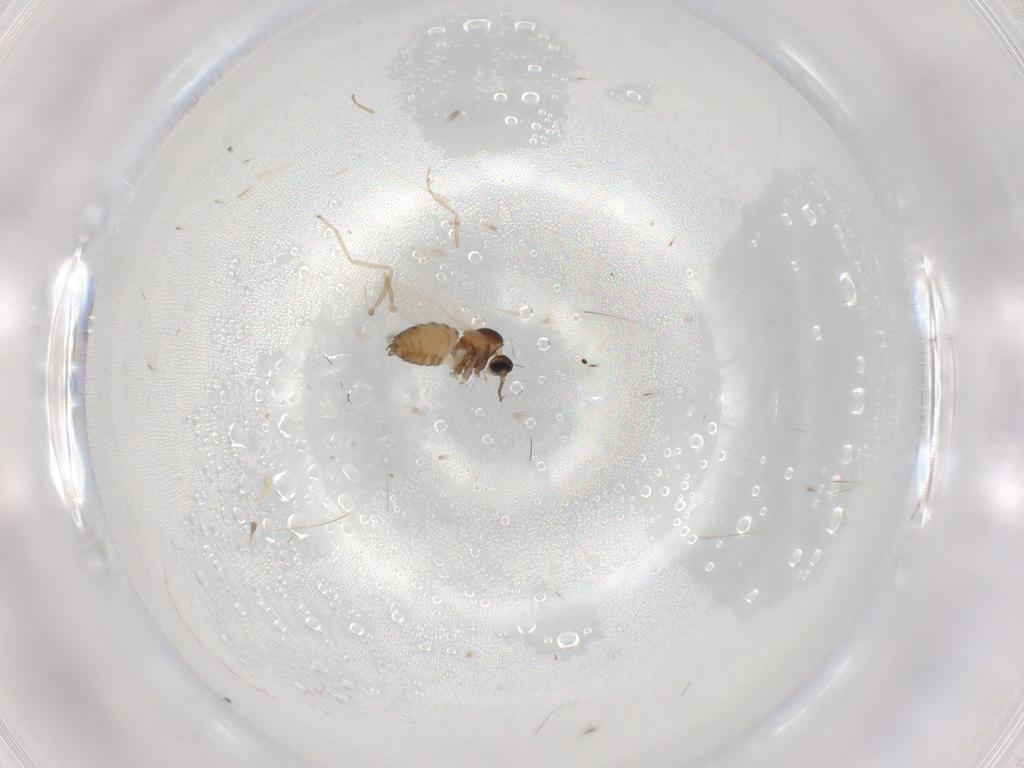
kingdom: Animalia
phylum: Arthropoda
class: Insecta
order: Diptera
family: Cecidomyiidae
